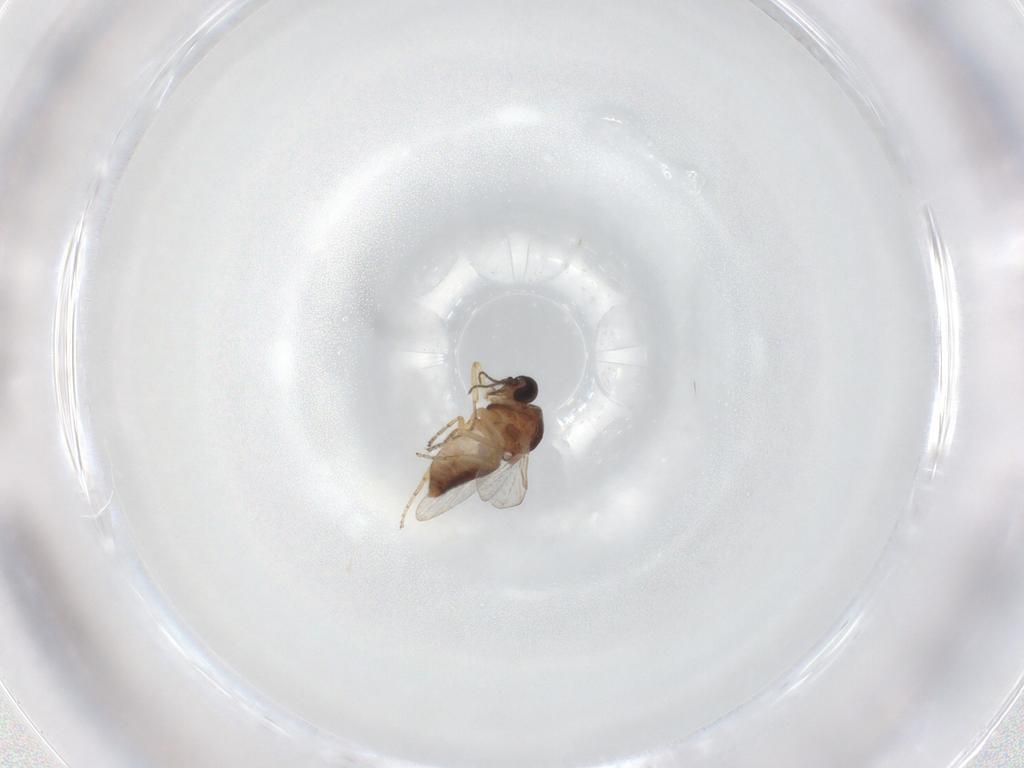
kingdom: Animalia
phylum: Arthropoda
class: Insecta
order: Diptera
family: Ceratopogonidae
